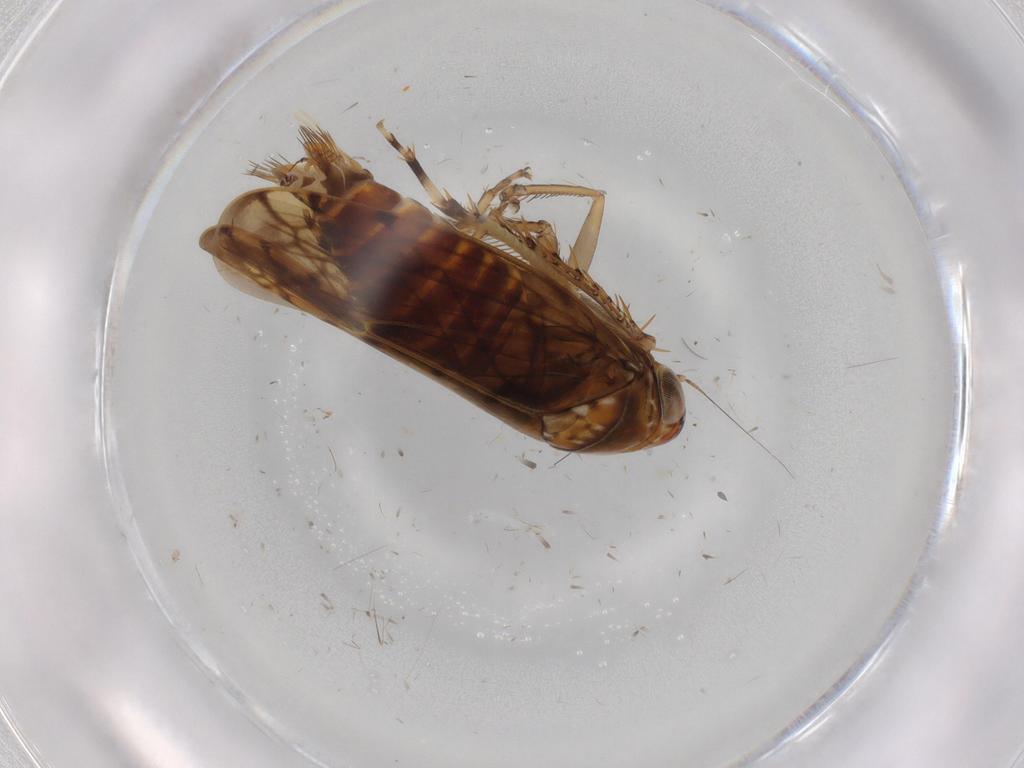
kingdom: Animalia
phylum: Arthropoda
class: Insecta
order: Hemiptera
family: Cicadellidae
